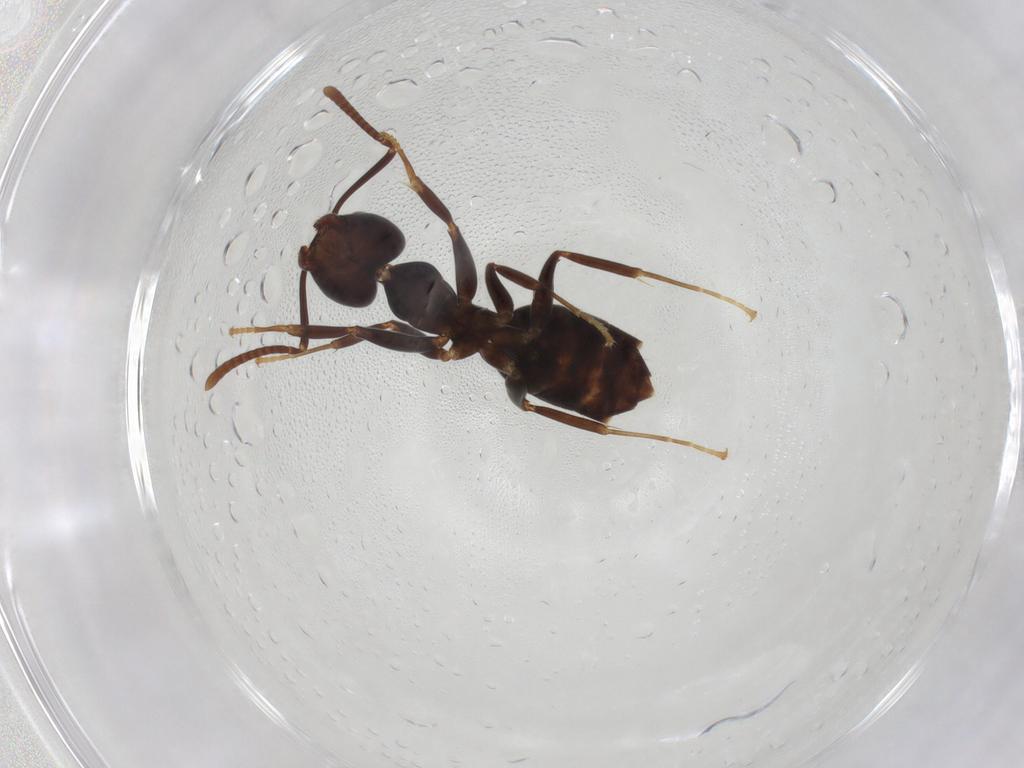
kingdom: Animalia
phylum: Arthropoda
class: Insecta
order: Hymenoptera
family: Formicidae
